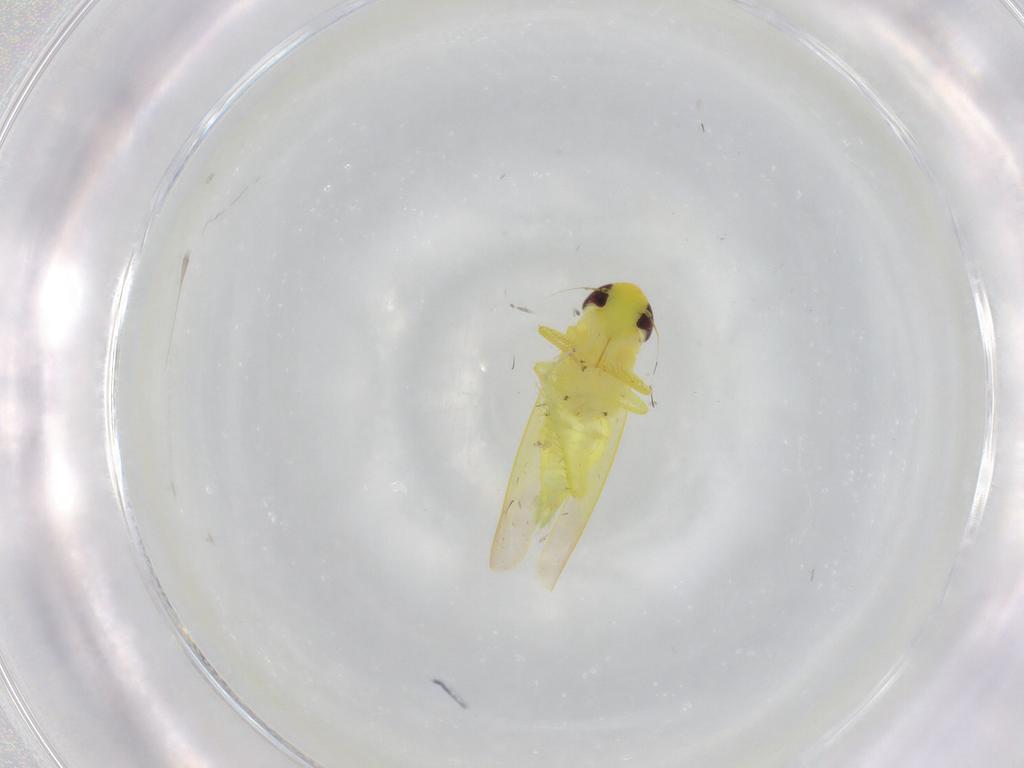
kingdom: Animalia
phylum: Arthropoda
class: Insecta
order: Hemiptera
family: Cicadellidae
